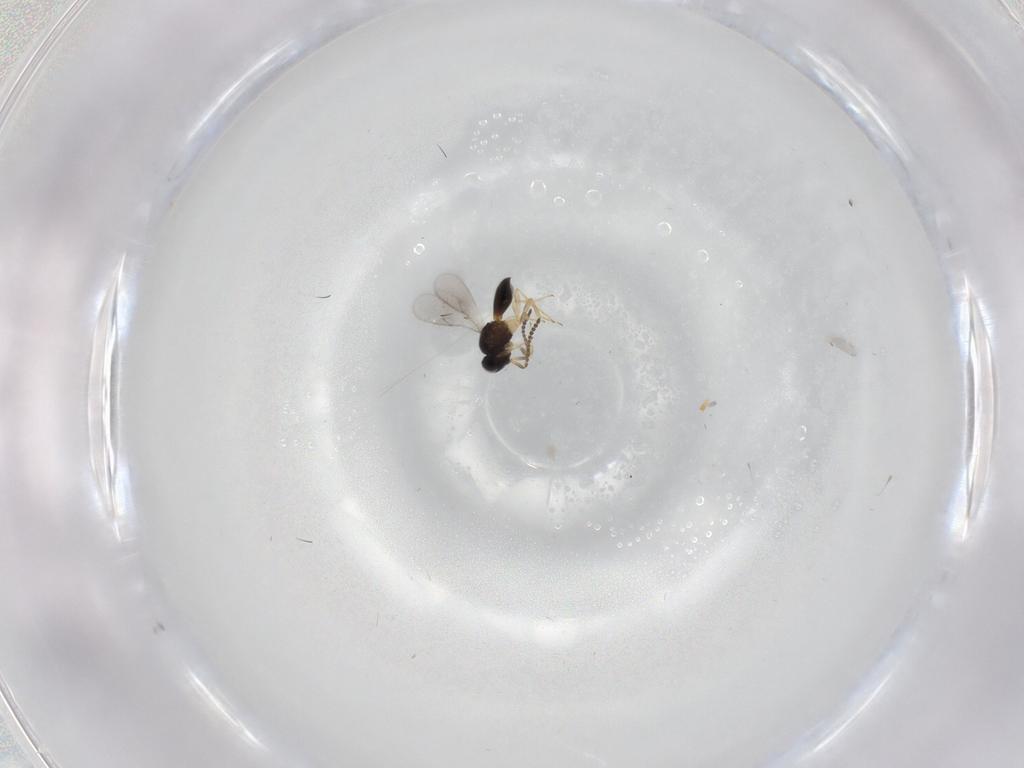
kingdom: Animalia
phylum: Arthropoda
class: Insecta
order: Hymenoptera
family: Scelionidae
